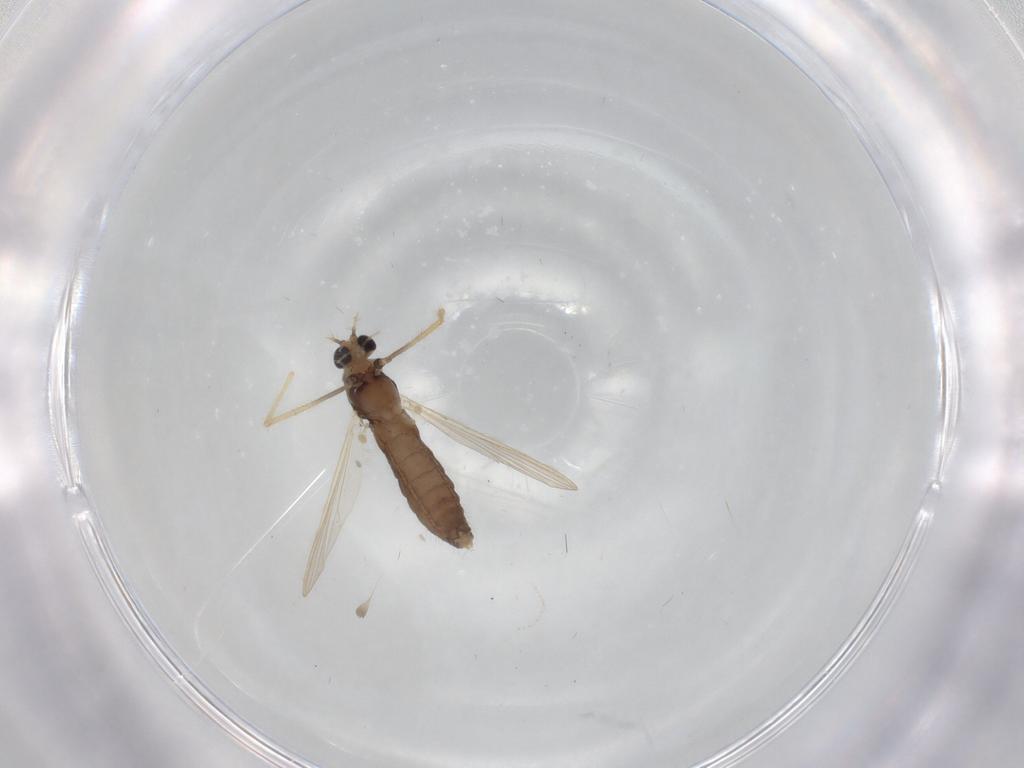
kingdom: Animalia
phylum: Arthropoda
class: Insecta
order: Diptera
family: Chironomidae
